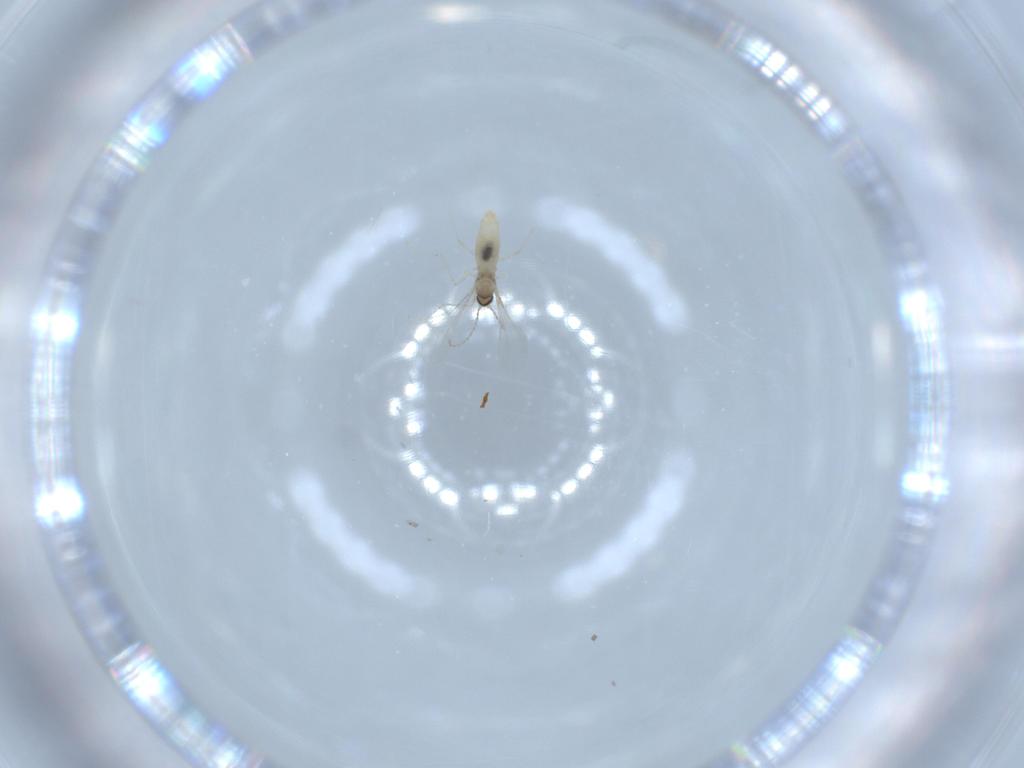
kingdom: Animalia
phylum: Arthropoda
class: Insecta
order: Diptera
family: Cecidomyiidae
